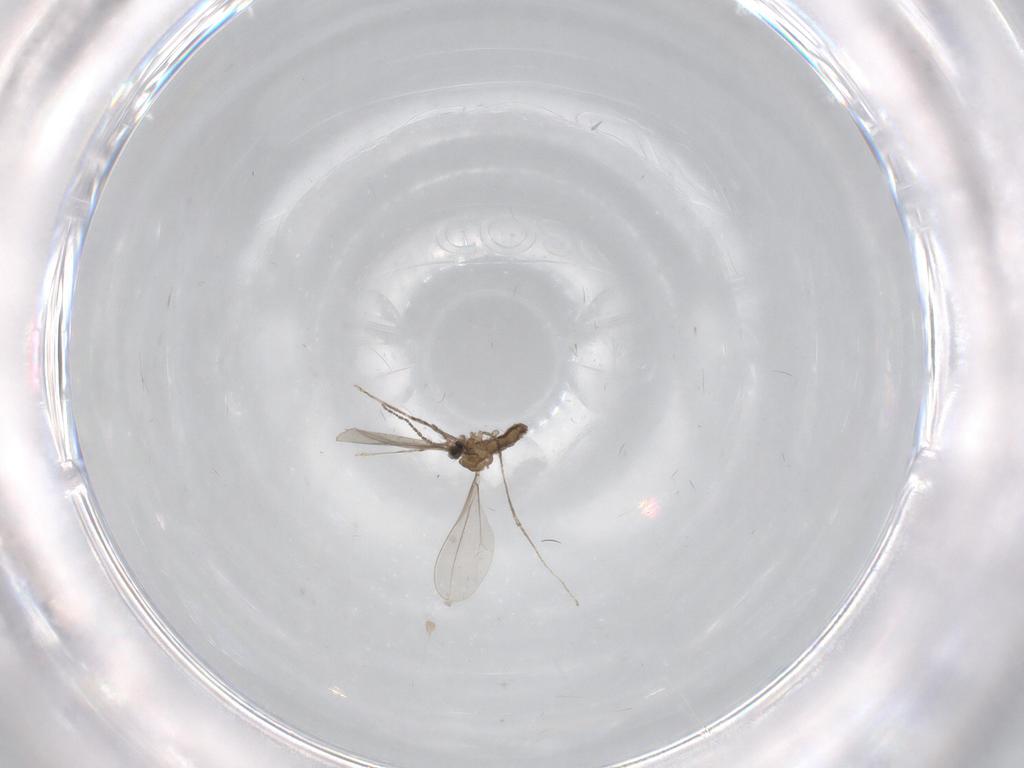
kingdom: Animalia
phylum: Arthropoda
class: Insecta
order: Diptera
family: Cecidomyiidae
